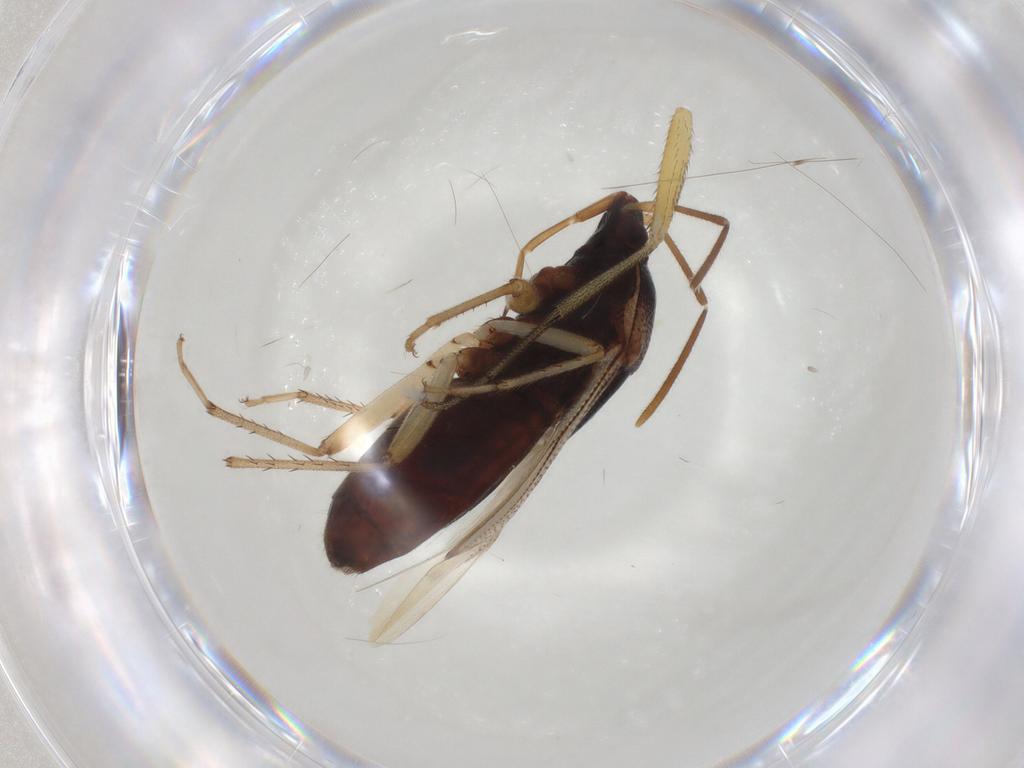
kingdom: Animalia
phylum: Arthropoda
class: Insecta
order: Hemiptera
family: Rhyparochromidae
